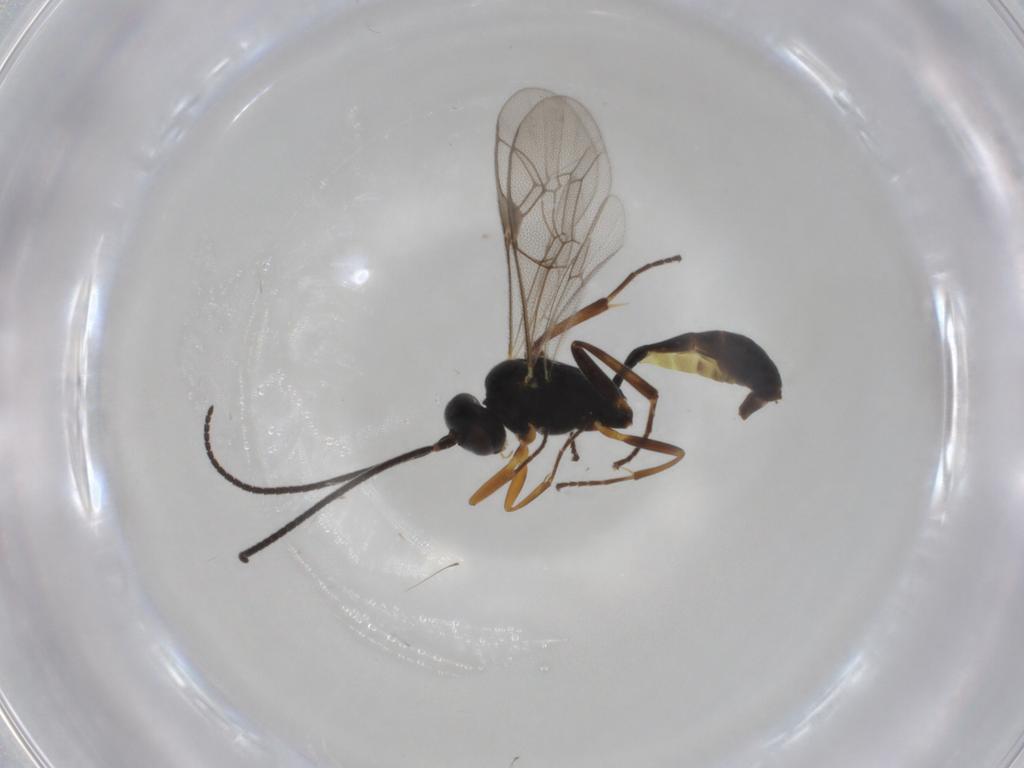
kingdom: Animalia
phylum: Arthropoda
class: Insecta
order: Hymenoptera
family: Ichneumonidae
